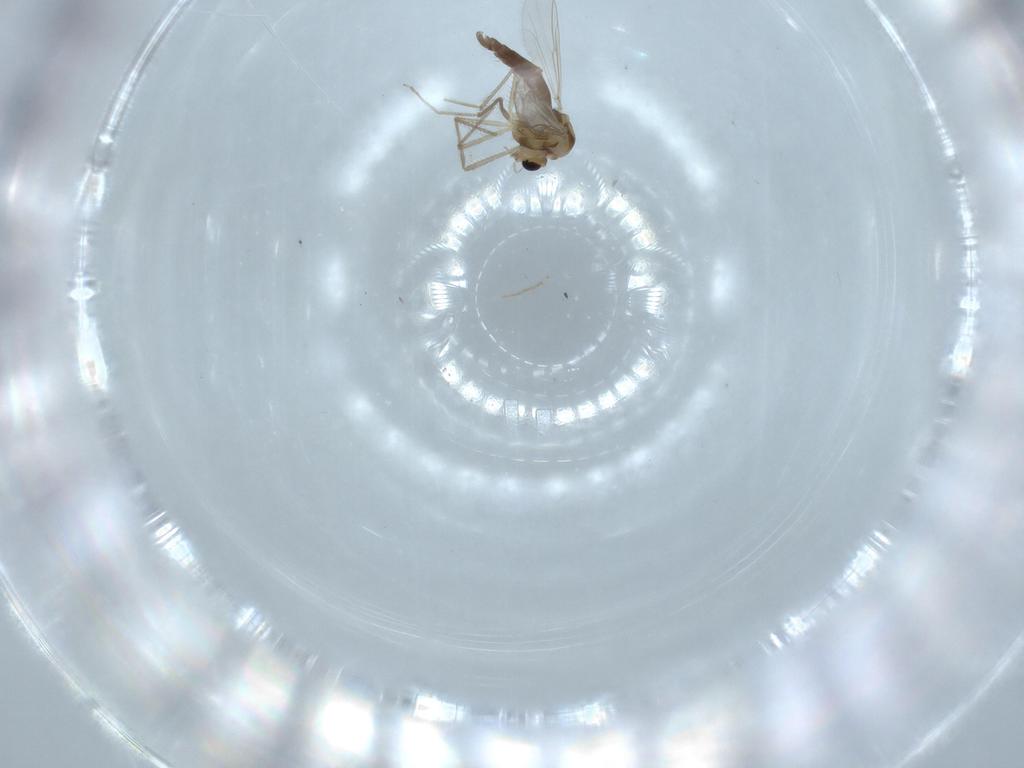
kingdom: Animalia
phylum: Arthropoda
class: Insecta
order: Diptera
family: Chironomidae
